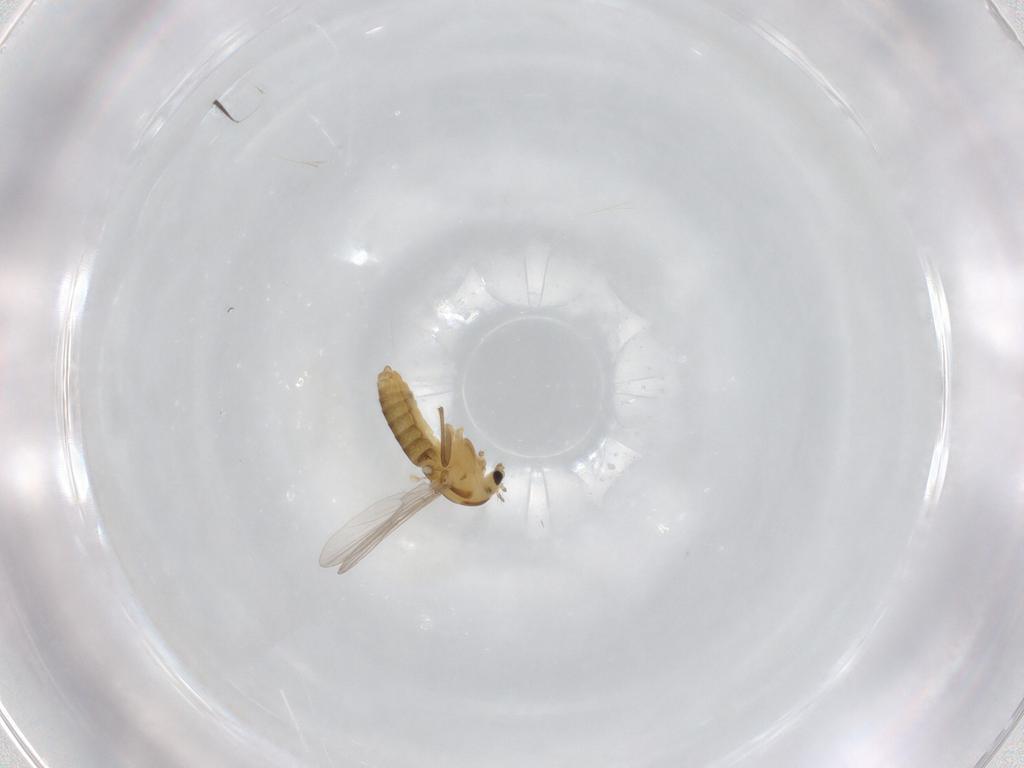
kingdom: Animalia
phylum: Arthropoda
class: Insecta
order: Diptera
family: Chironomidae
